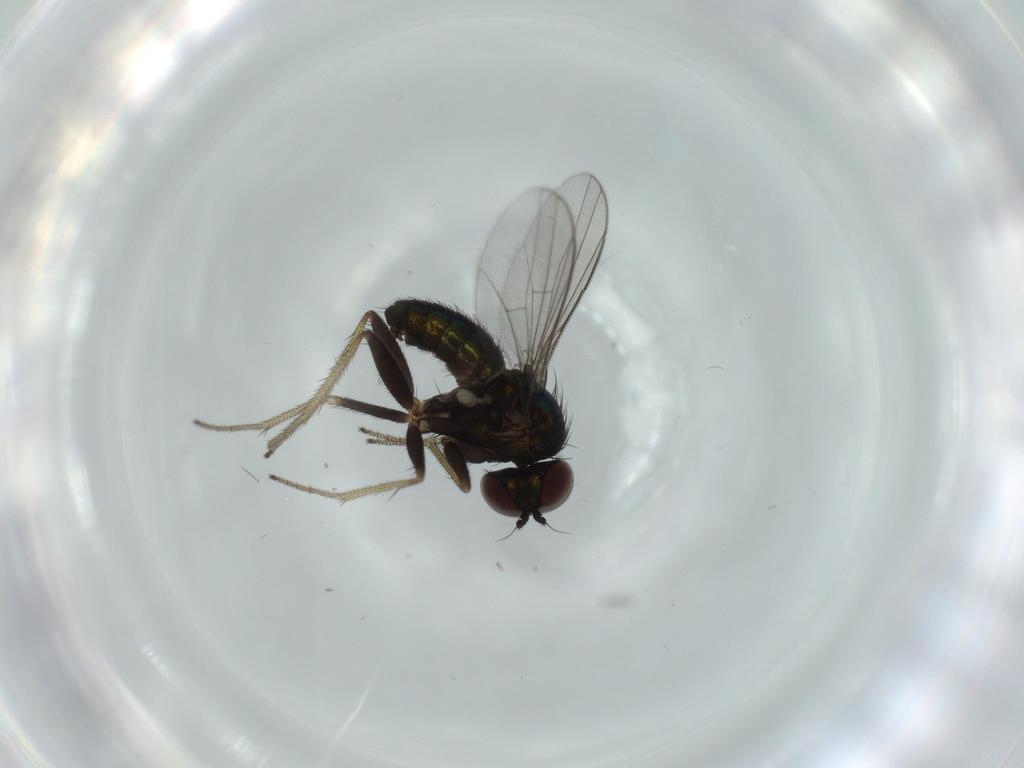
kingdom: Animalia
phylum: Arthropoda
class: Insecta
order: Diptera
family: Dolichopodidae
